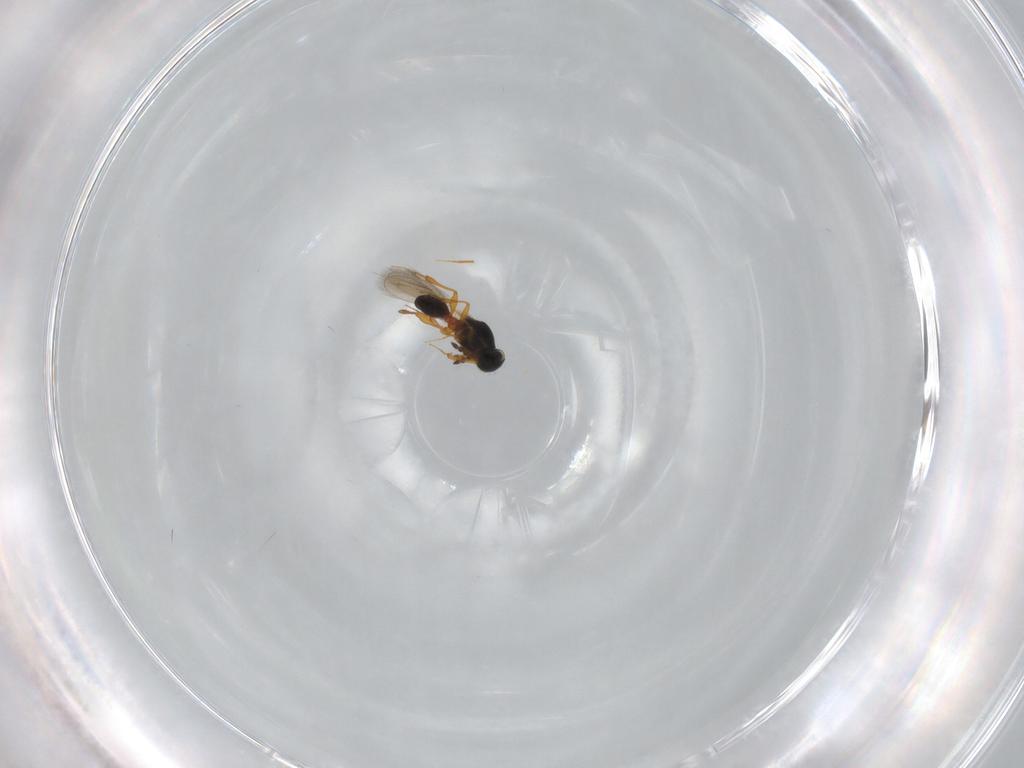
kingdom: Animalia
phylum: Arthropoda
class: Insecta
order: Hymenoptera
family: Platygastridae
